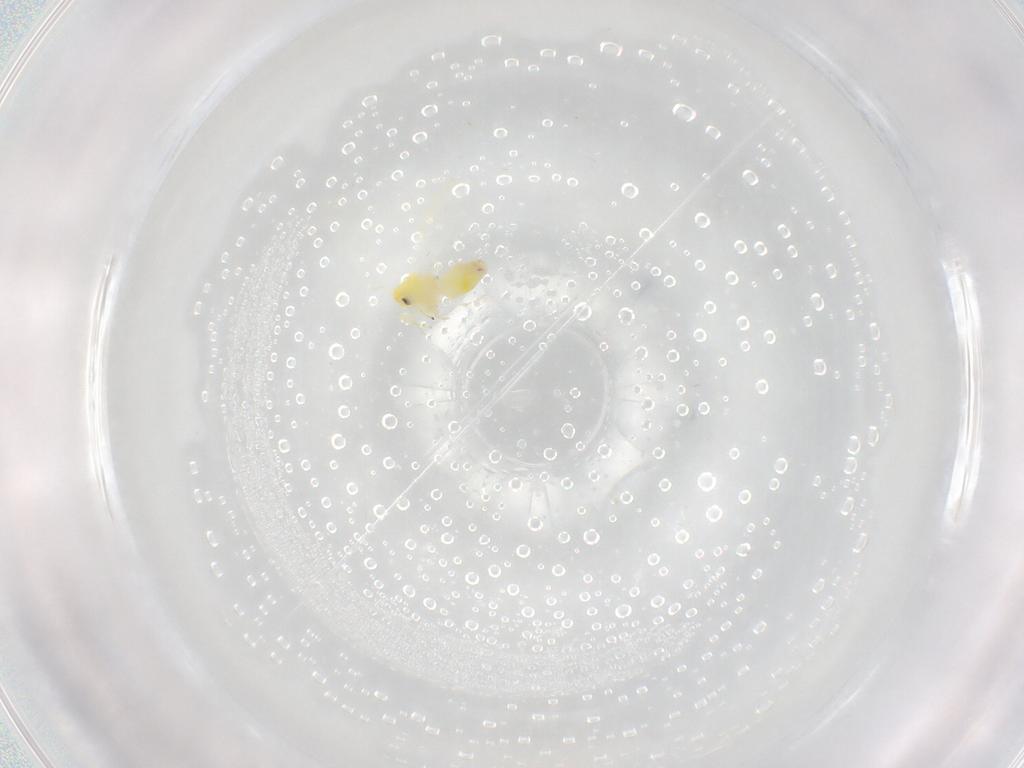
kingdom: Animalia
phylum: Arthropoda
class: Insecta
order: Hemiptera
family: Aleyrodidae
